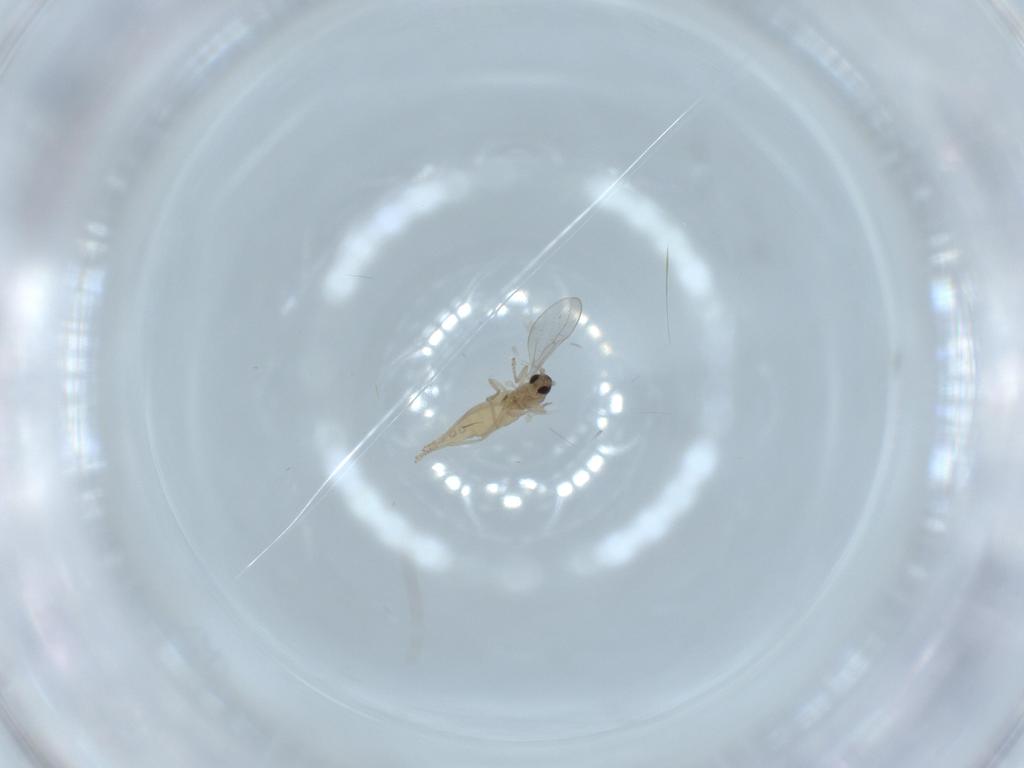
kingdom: Animalia
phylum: Arthropoda
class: Insecta
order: Diptera
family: Cecidomyiidae
